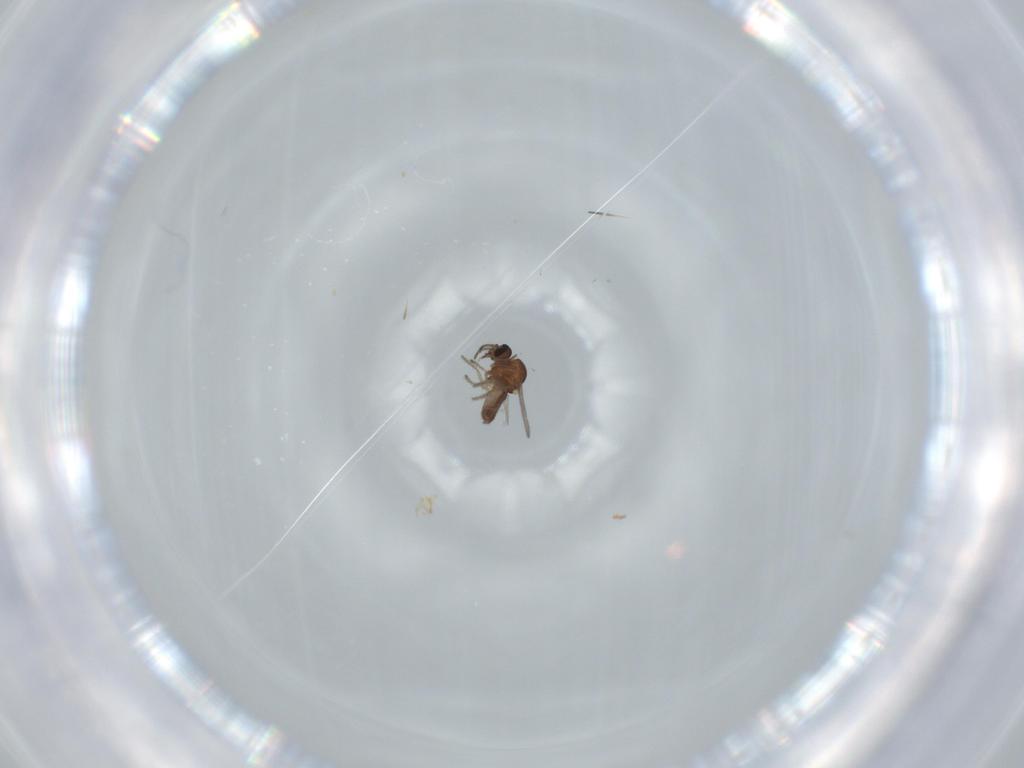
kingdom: Animalia
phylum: Arthropoda
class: Insecta
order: Diptera
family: Ceratopogonidae
